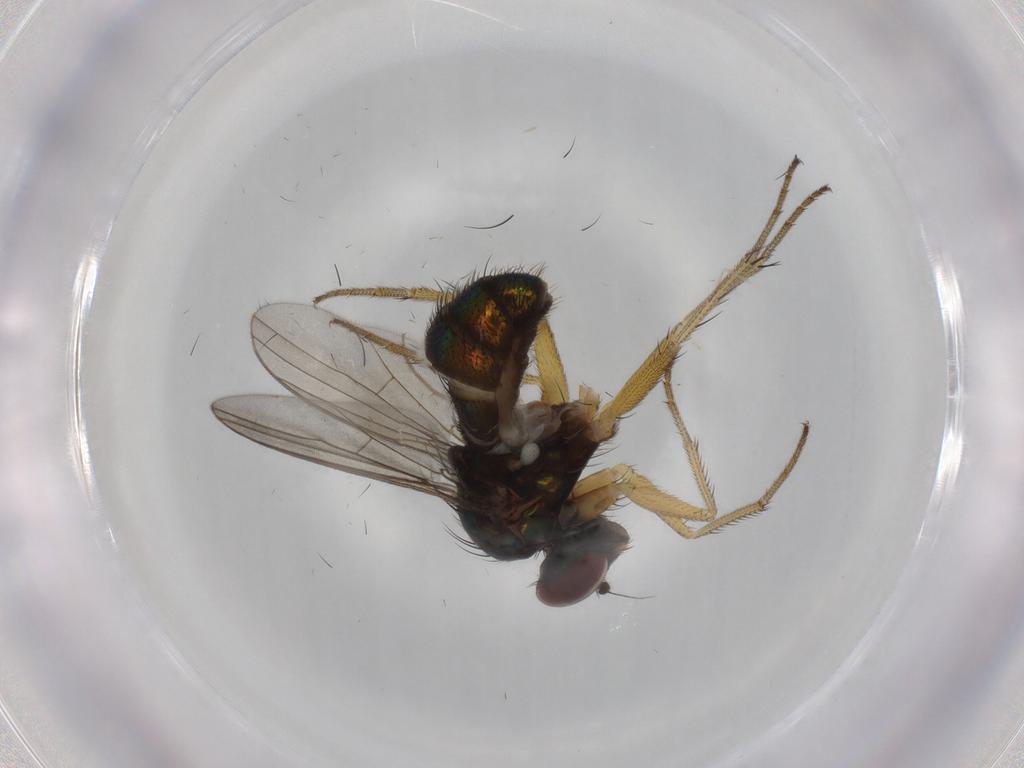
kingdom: Animalia
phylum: Arthropoda
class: Insecta
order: Diptera
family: Dolichopodidae
